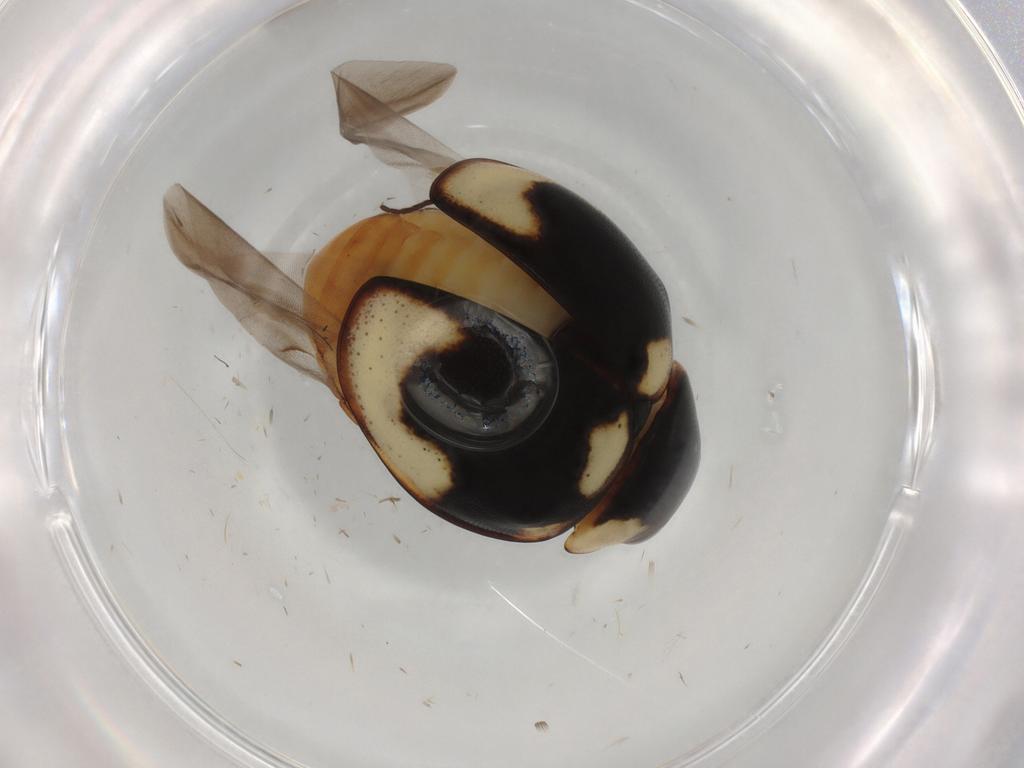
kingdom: Animalia
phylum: Arthropoda
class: Insecta
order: Coleoptera
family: Coccinellidae
